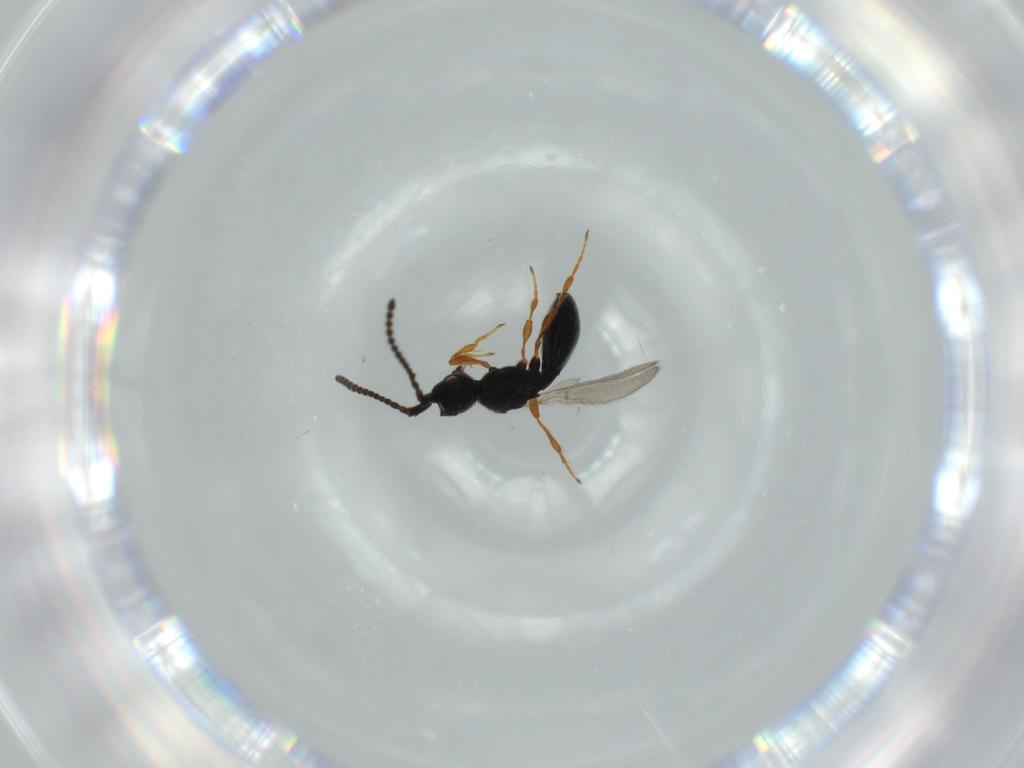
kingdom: Animalia
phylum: Arthropoda
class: Insecta
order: Hymenoptera
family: Diapriidae
